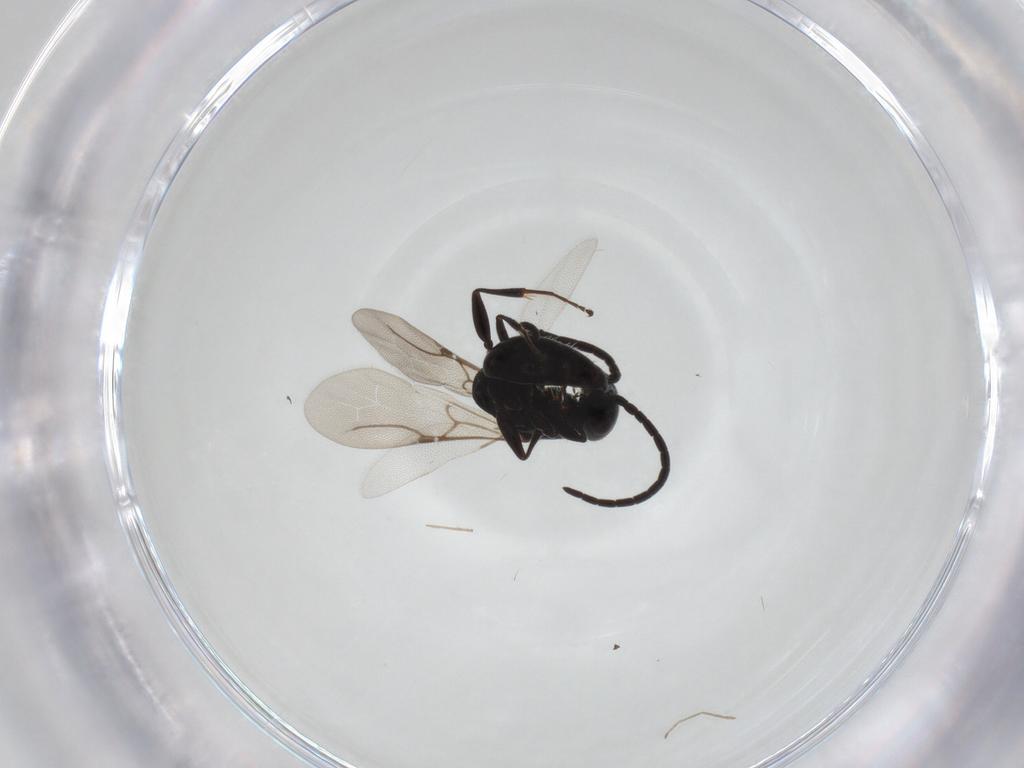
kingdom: Animalia
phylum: Arthropoda
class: Insecta
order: Hymenoptera
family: Bethylidae
